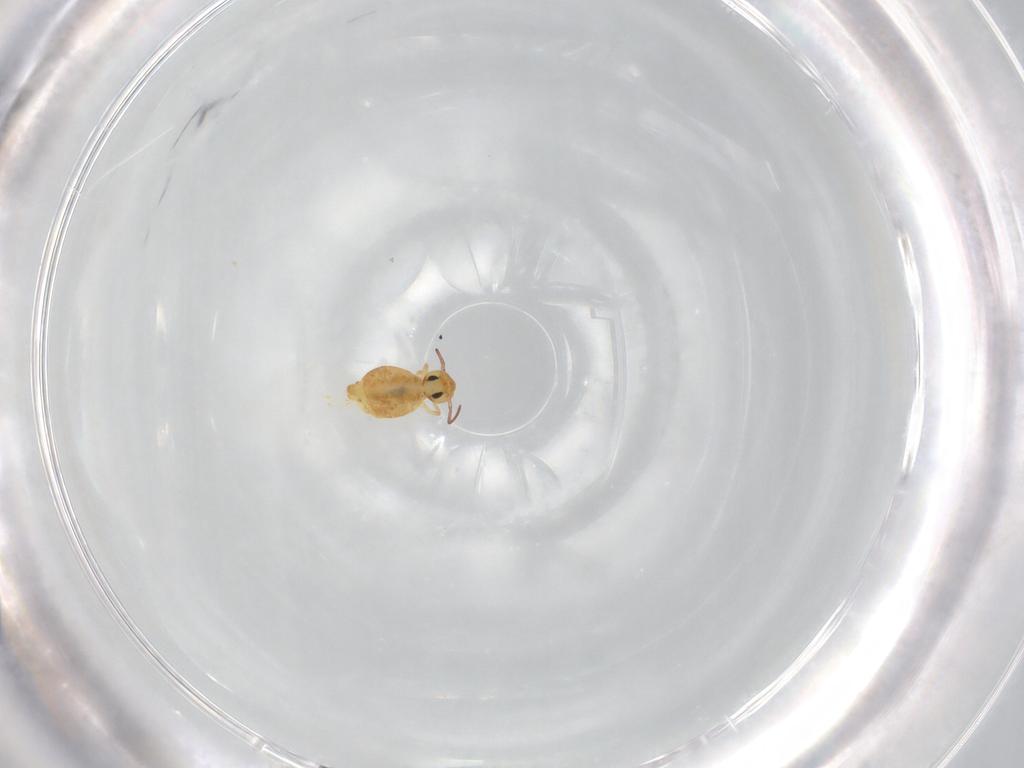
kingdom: Animalia
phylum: Arthropoda
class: Collembola
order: Symphypleona
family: Bourletiellidae
